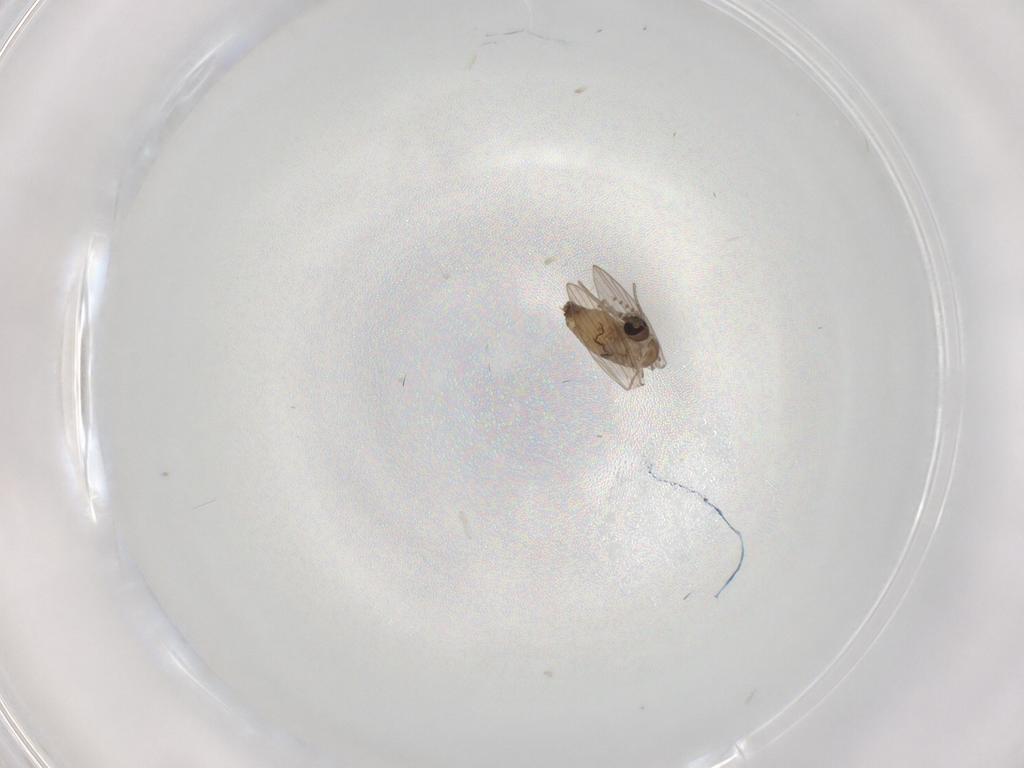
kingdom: Animalia
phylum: Arthropoda
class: Insecta
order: Diptera
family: Psychodidae
